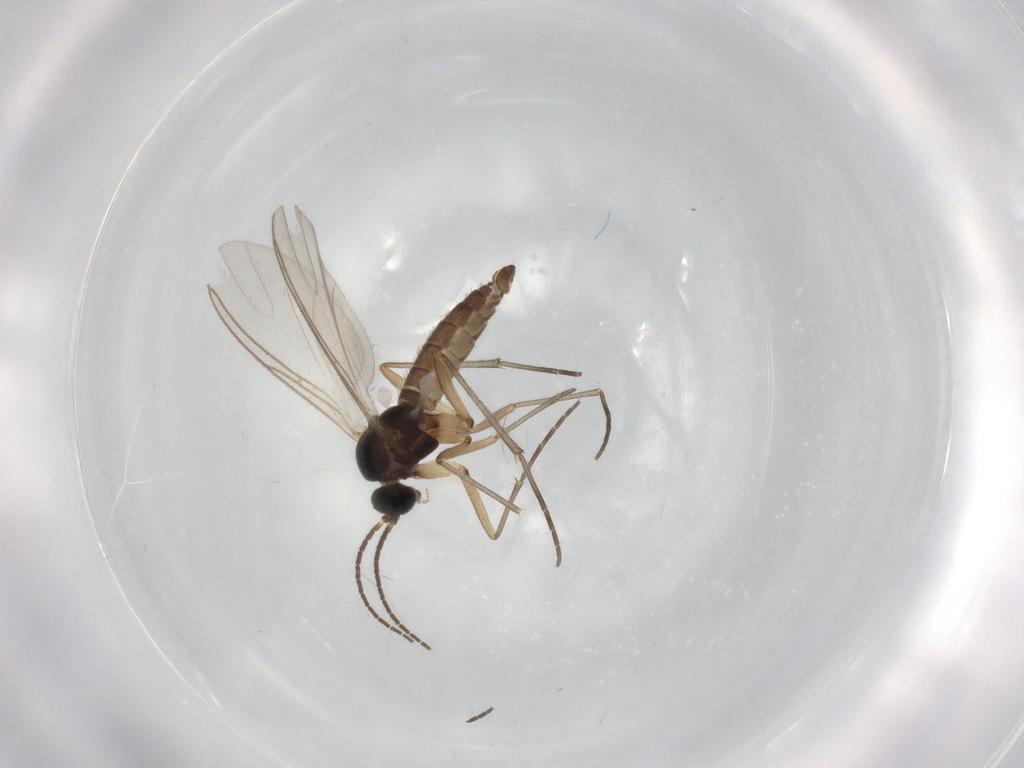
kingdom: Animalia
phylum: Arthropoda
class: Insecta
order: Diptera
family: Sciaridae
